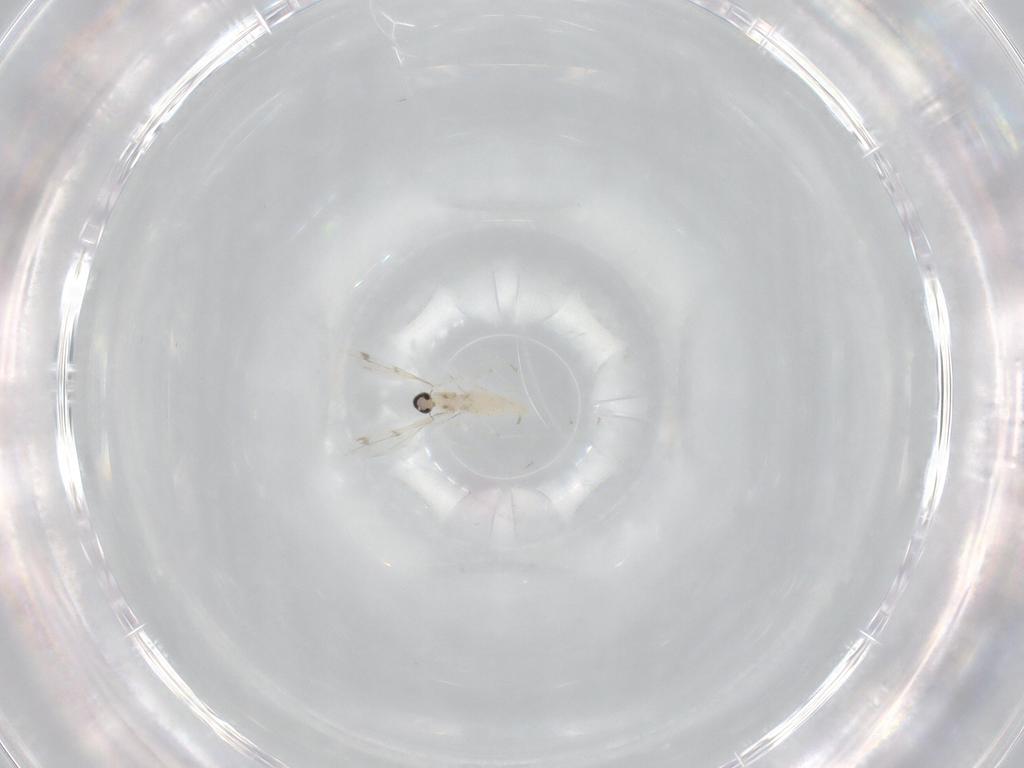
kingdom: Animalia
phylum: Arthropoda
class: Insecta
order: Diptera
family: Cecidomyiidae
